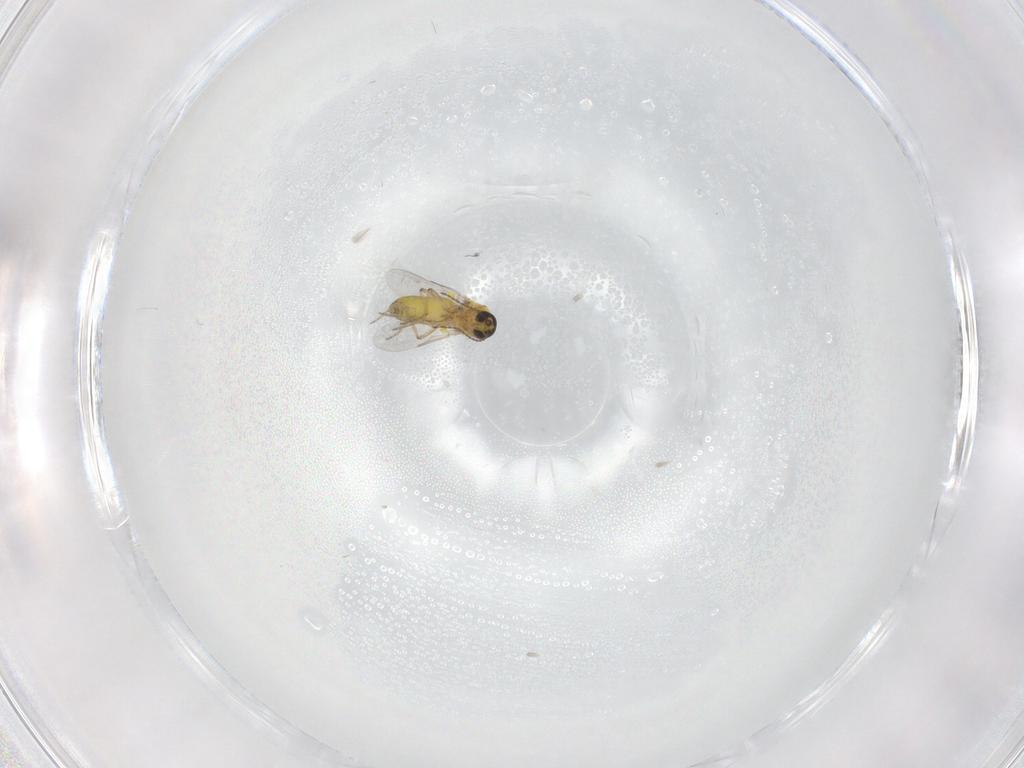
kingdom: Animalia
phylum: Arthropoda
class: Insecta
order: Diptera
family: Ceratopogonidae
